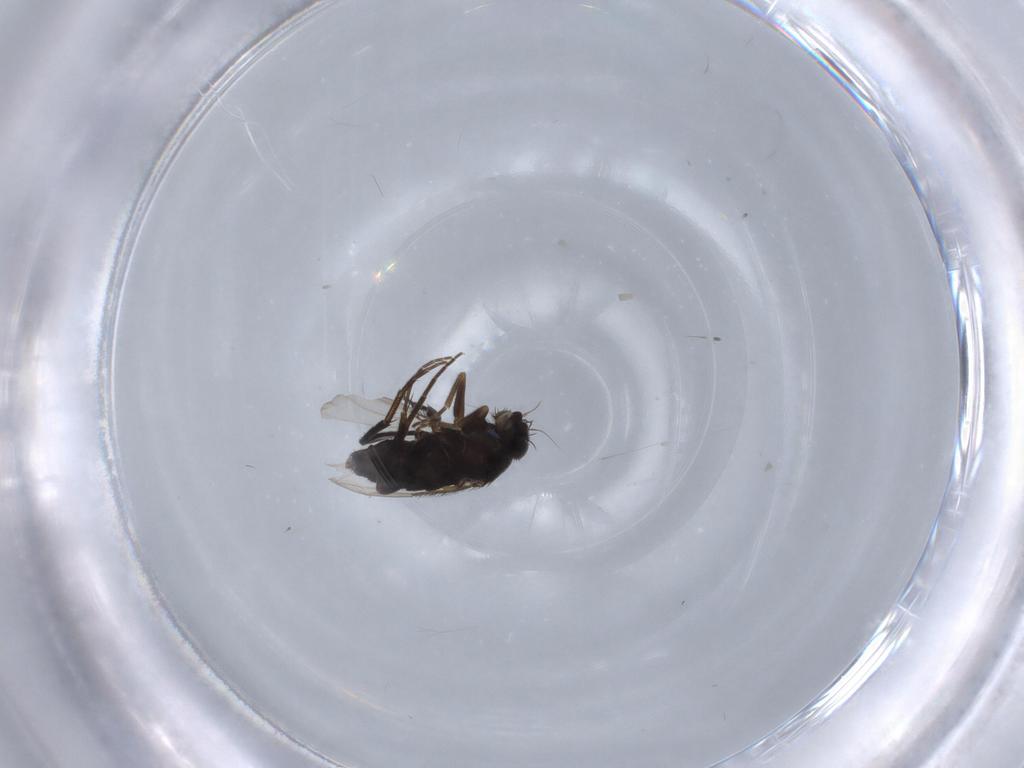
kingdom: Animalia
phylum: Arthropoda
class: Insecta
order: Diptera
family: Phoridae
